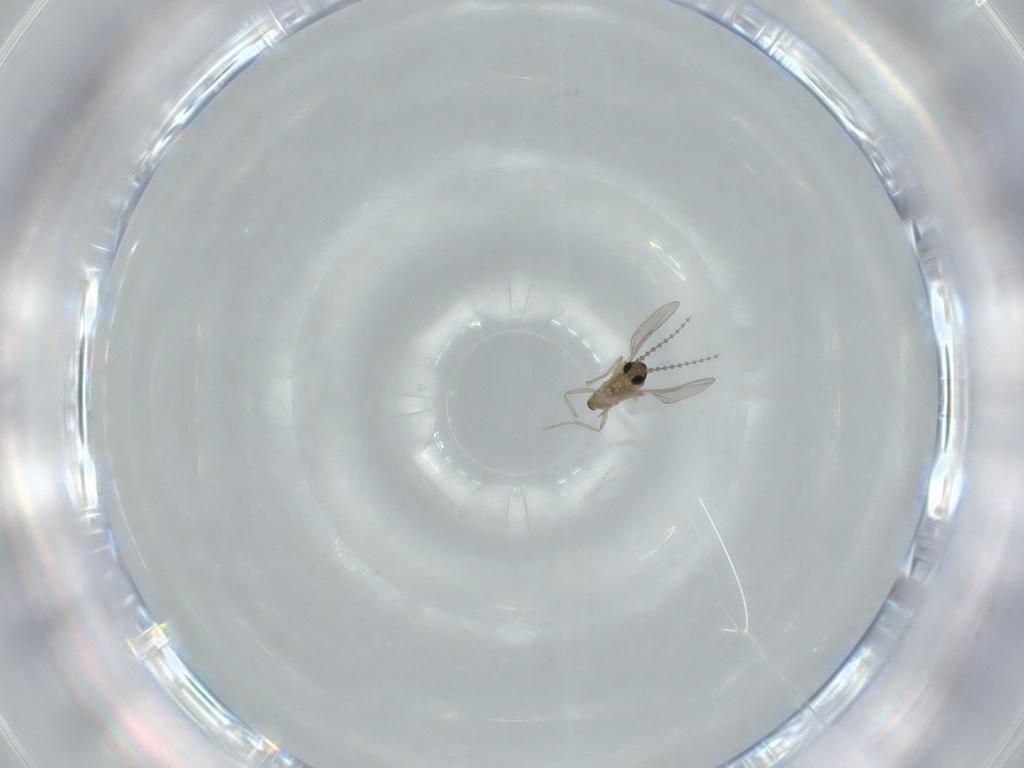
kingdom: Animalia
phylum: Arthropoda
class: Insecta
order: Diptera
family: Cecidomyiidae
